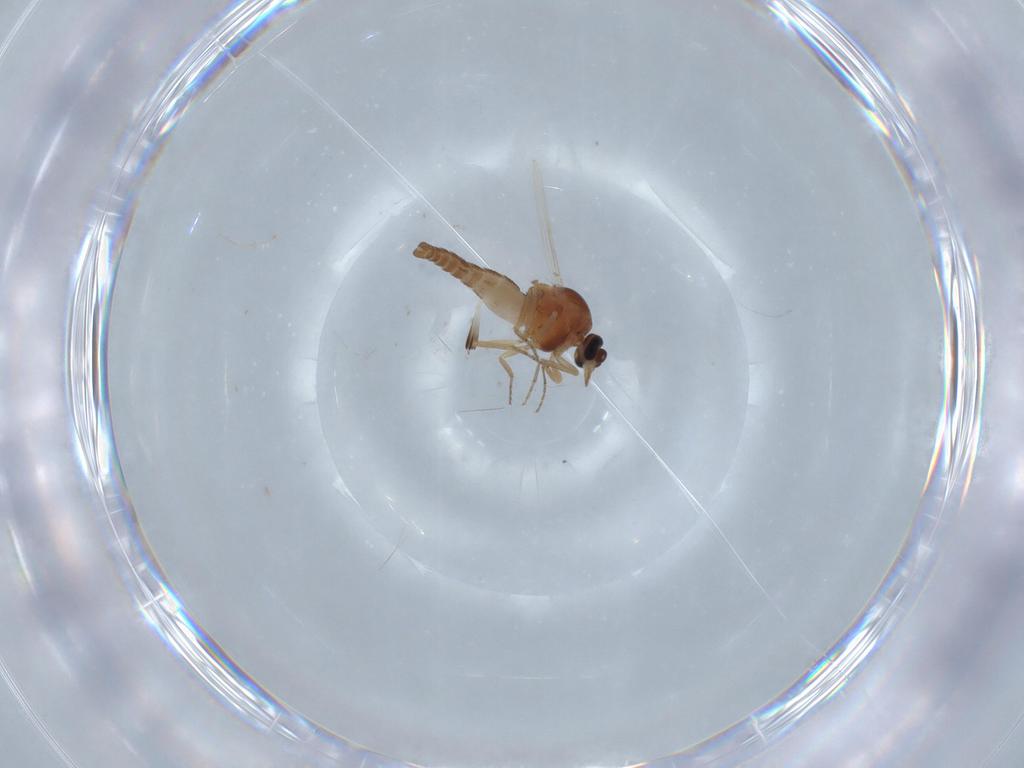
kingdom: Animalia
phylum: Arthropoda
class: Insecta
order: Diptera
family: Ceratopogonidae
